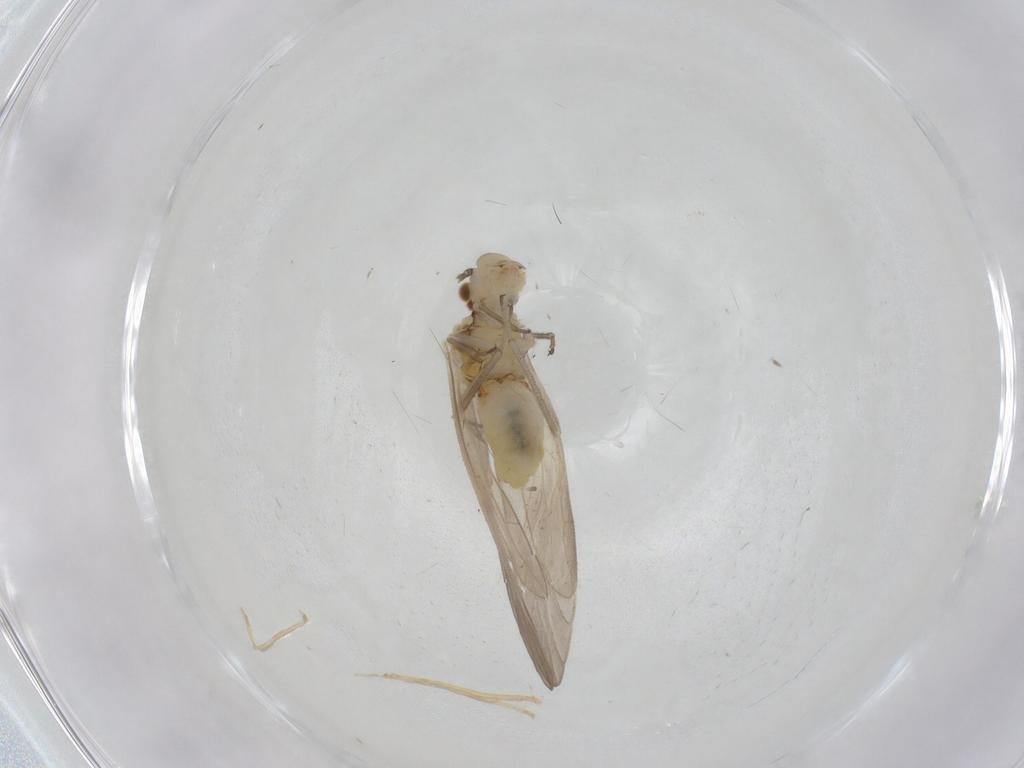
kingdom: Animalia
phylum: Arthropoda
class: Insecta
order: Psocodea
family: Caeciliusidae
